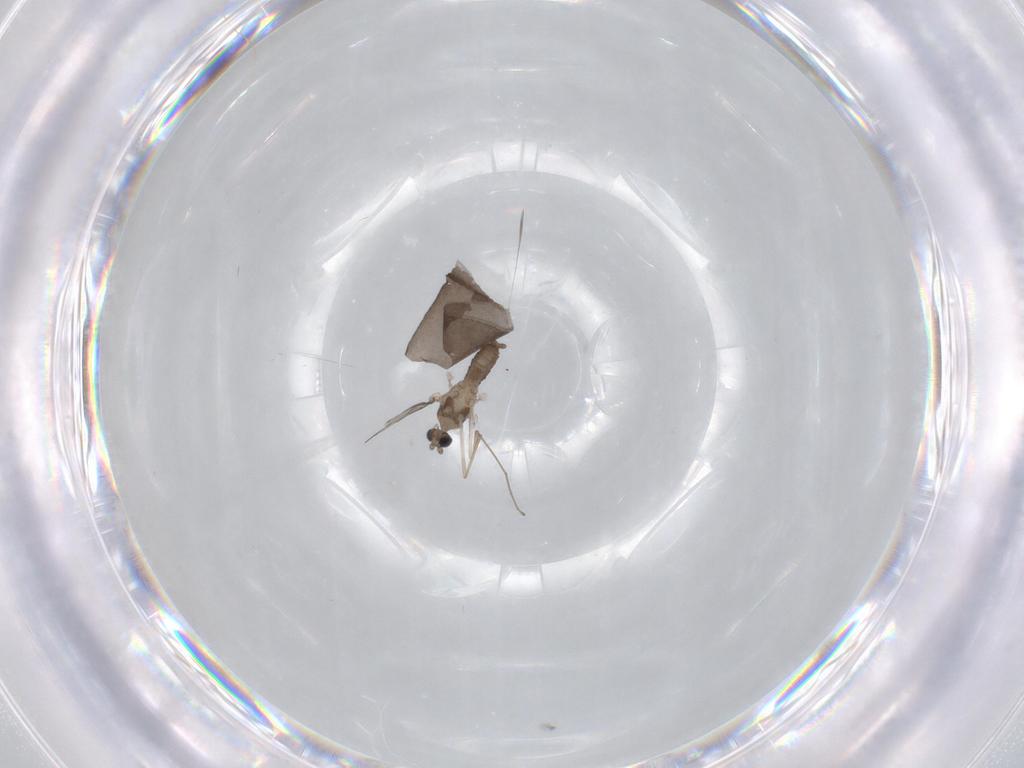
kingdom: Animalia
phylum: Arthropoda
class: Insecta
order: Diptera
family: Cecidomyiidae
